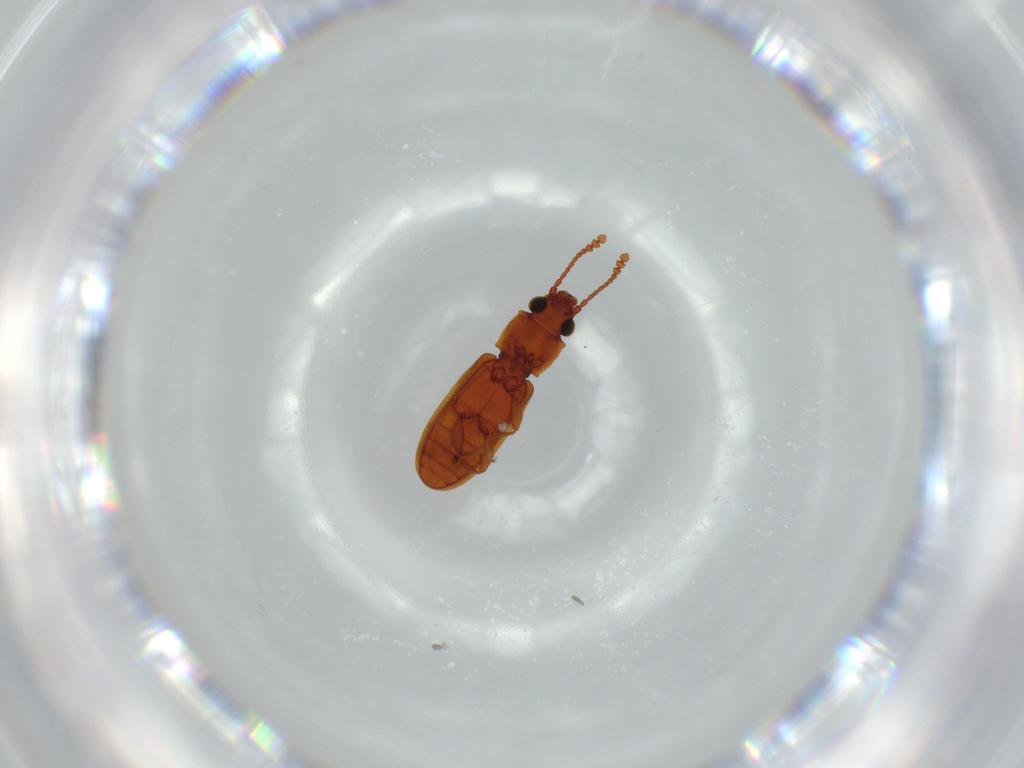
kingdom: Animalia
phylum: Arthropoda
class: Insecta
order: Coleoptera
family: Silvanidae
